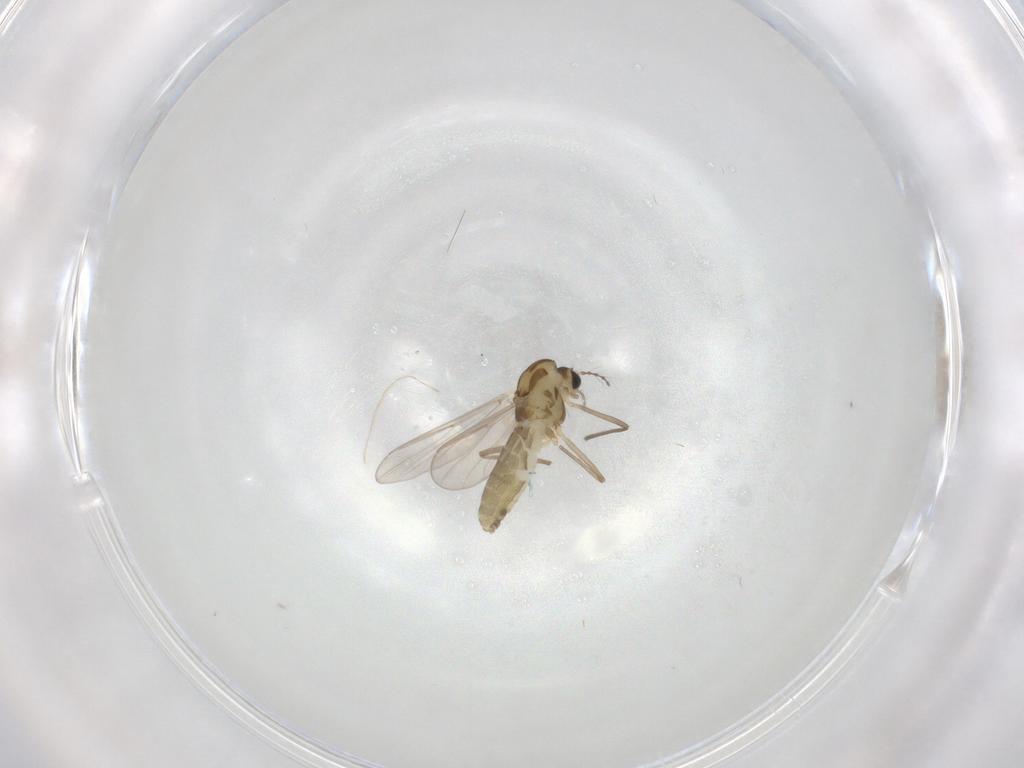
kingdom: Animalia
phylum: Arthropoda
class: Insecta
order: Diptera
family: Chironomidae
